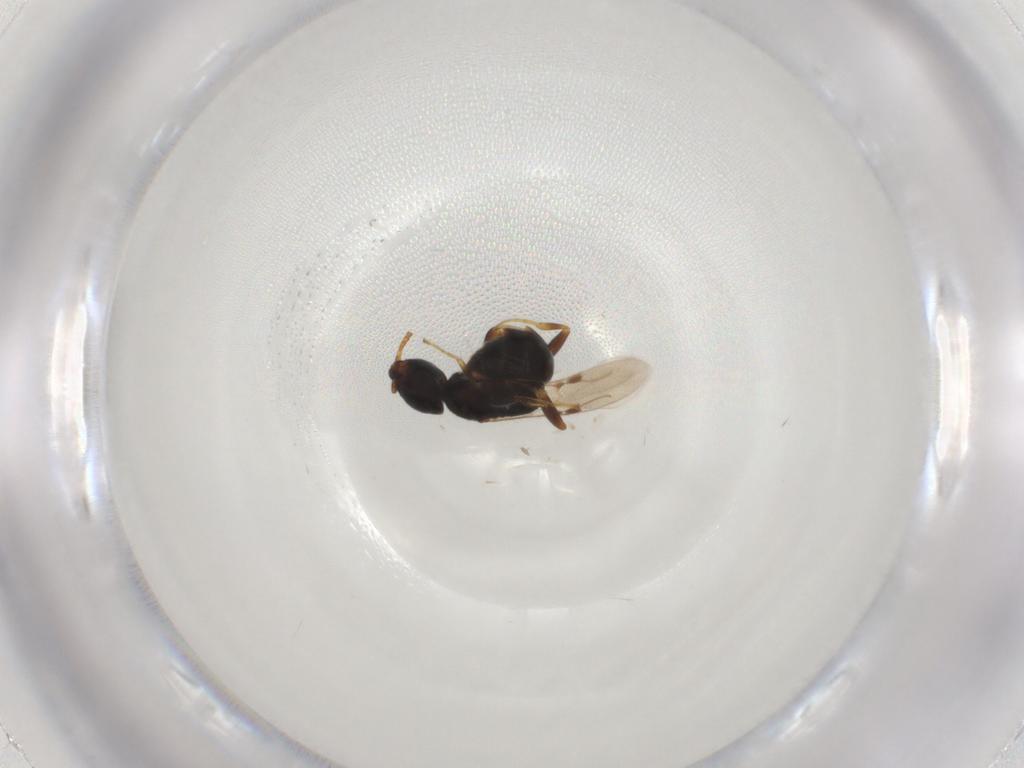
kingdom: Animalia
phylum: Arthropoda
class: Insecta
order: Hymenoptera
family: Bethylidae
